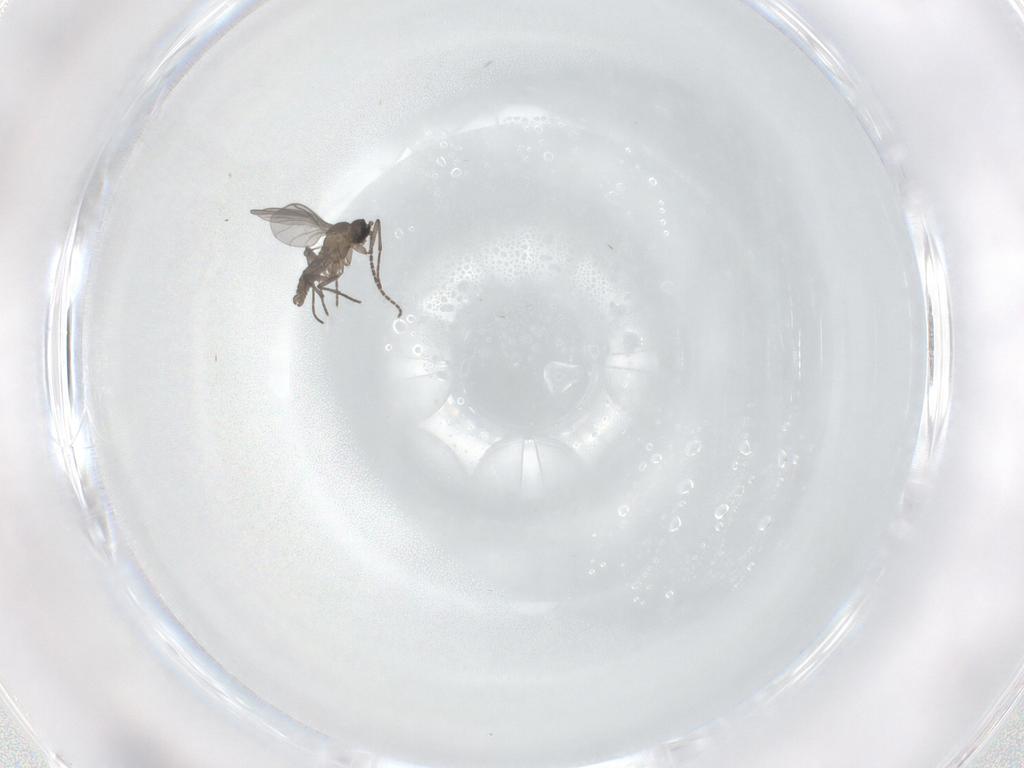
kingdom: Animalia
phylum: Arthropoda
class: Insecta
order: Diptera
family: Sciaridae
